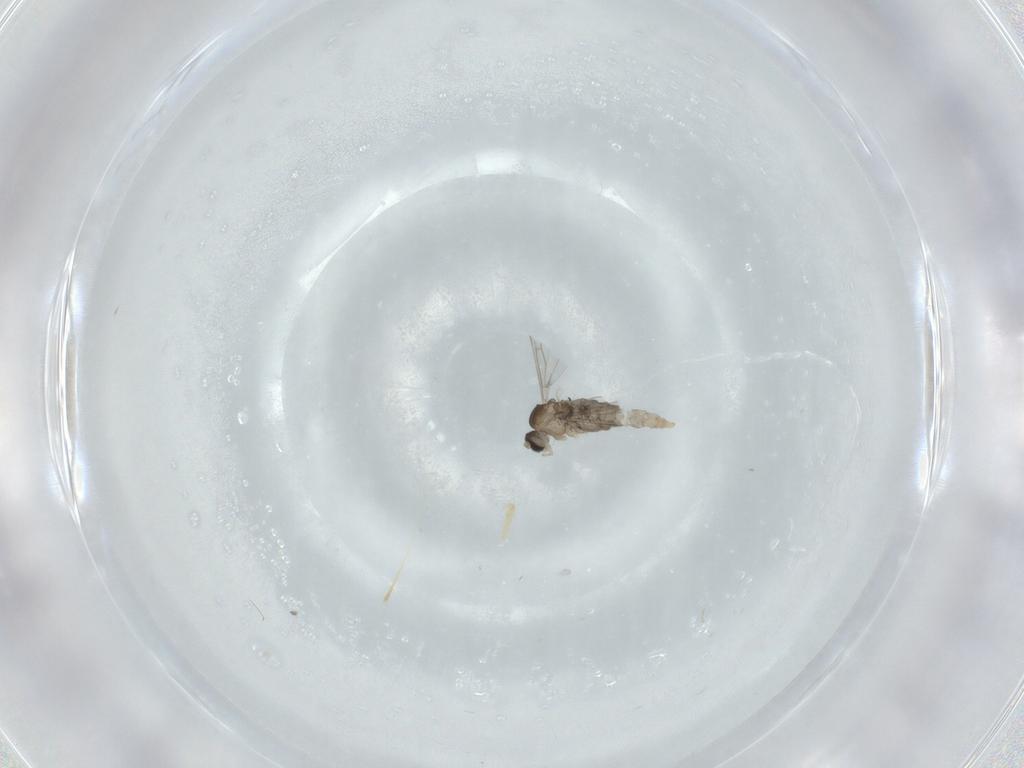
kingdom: Animalia
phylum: Arthropoda
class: Insecta
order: Diptera
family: Cecidomyiidae
